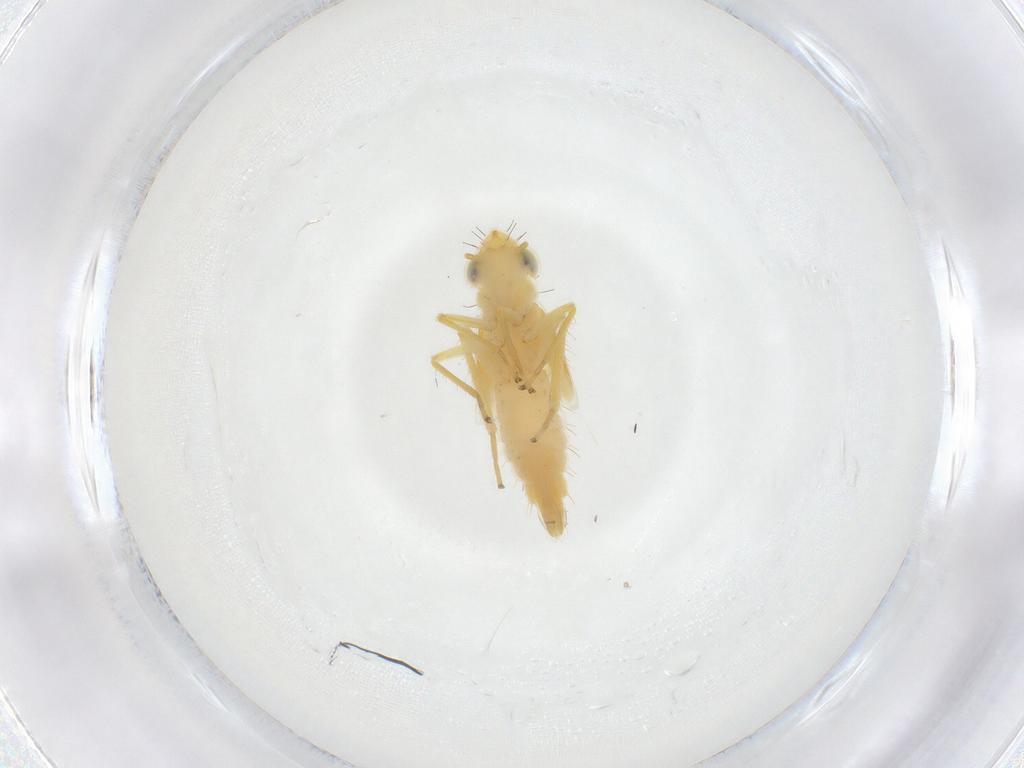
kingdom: Animalia
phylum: Arthropoda
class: Insecta
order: Hemiptera
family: Cicadellidae
